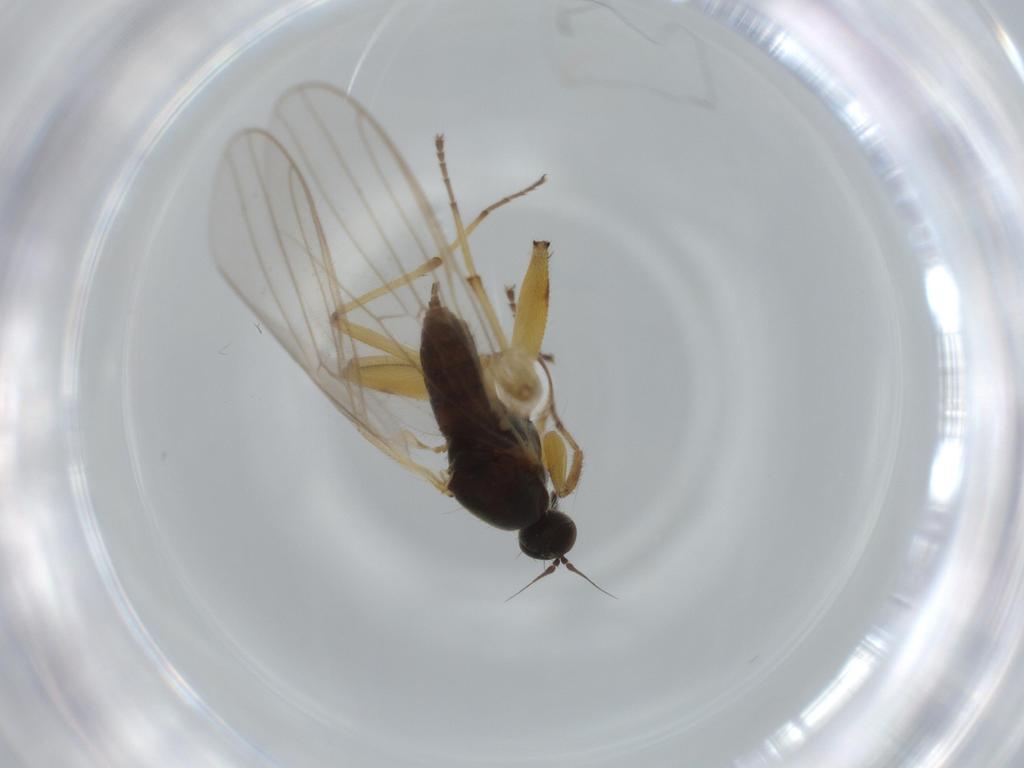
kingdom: Animalia
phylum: Arthropoda
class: Insecta
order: Diptera
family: Hybotidae
